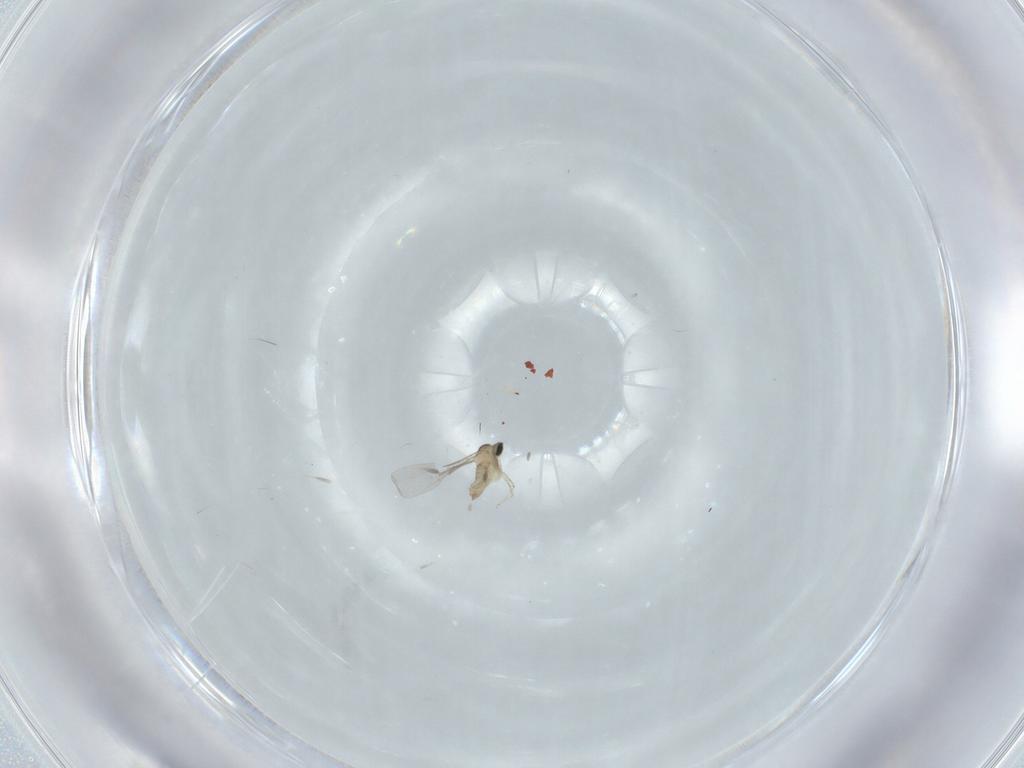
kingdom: Animalia
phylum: Arthropoda
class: Insecta
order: Diptera
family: Cecidomyiidae
